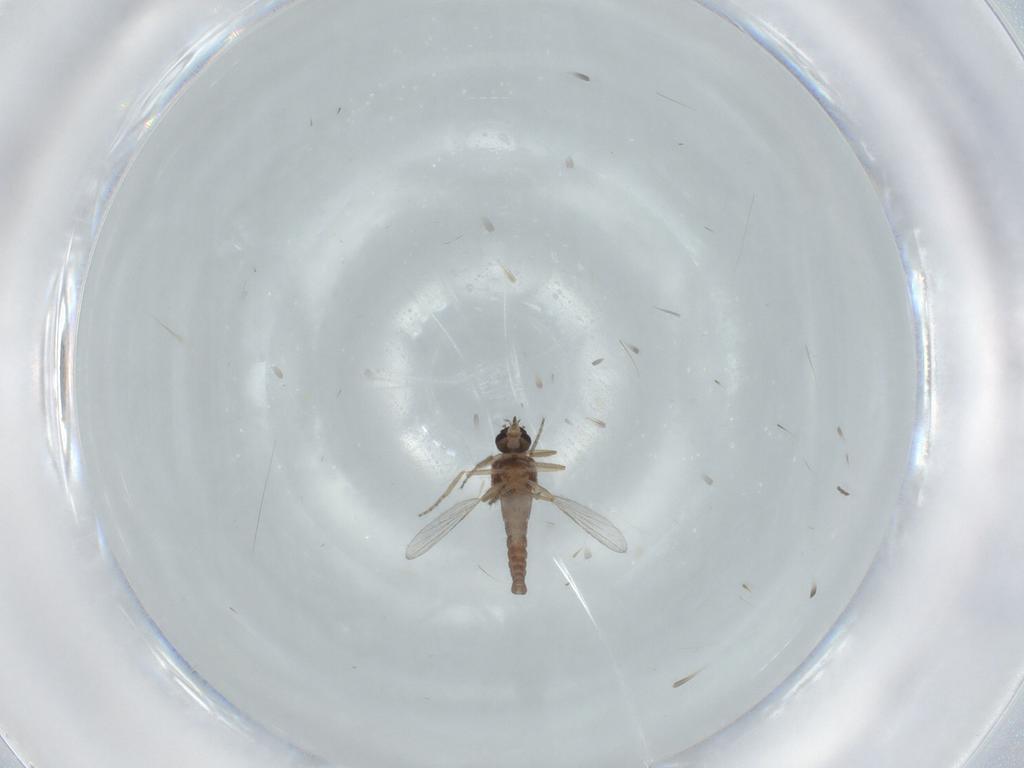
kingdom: Animalia
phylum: Arthropoda
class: Insecta
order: Diptera
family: Ceratopogonidae
